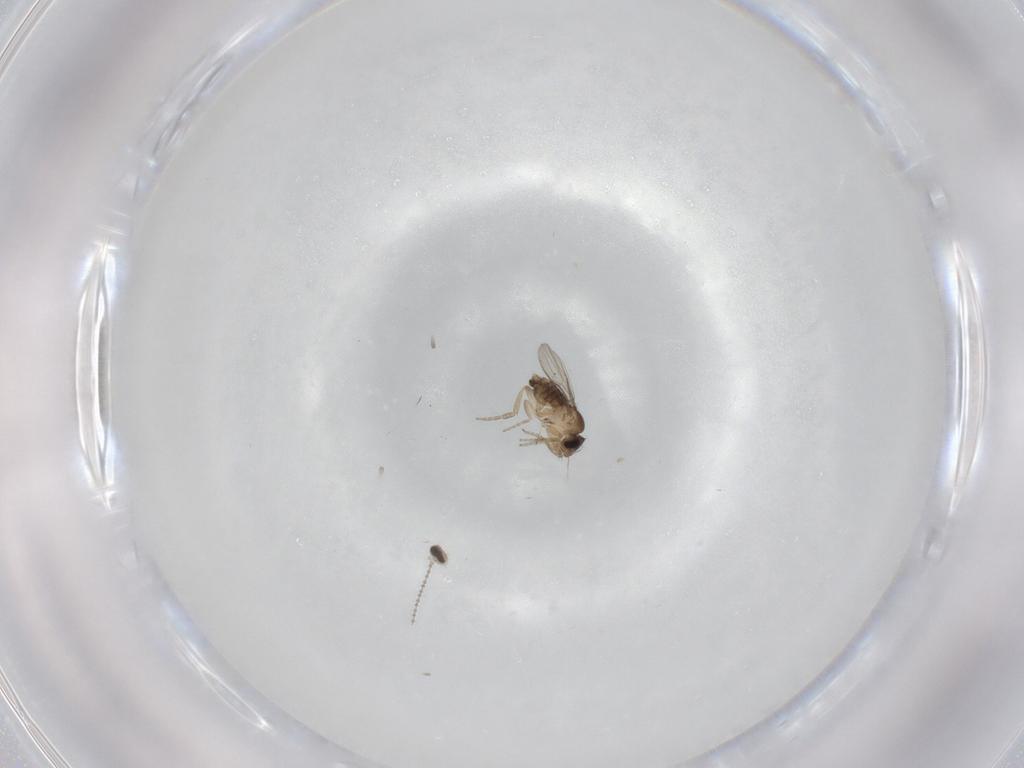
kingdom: Animalia
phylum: Arthropoda
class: Insecta
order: Diptera
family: Cecidomyiidae
